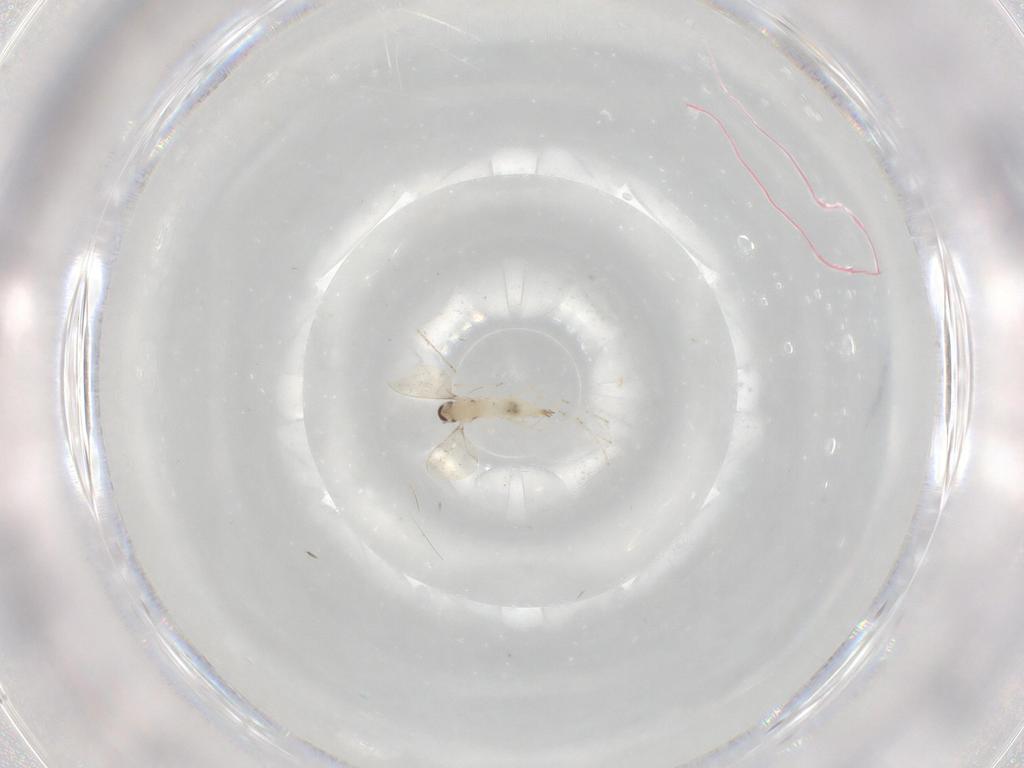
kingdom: Animalia
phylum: Arthropoda
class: Insecta
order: Diptera
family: Cecidomyiidae
